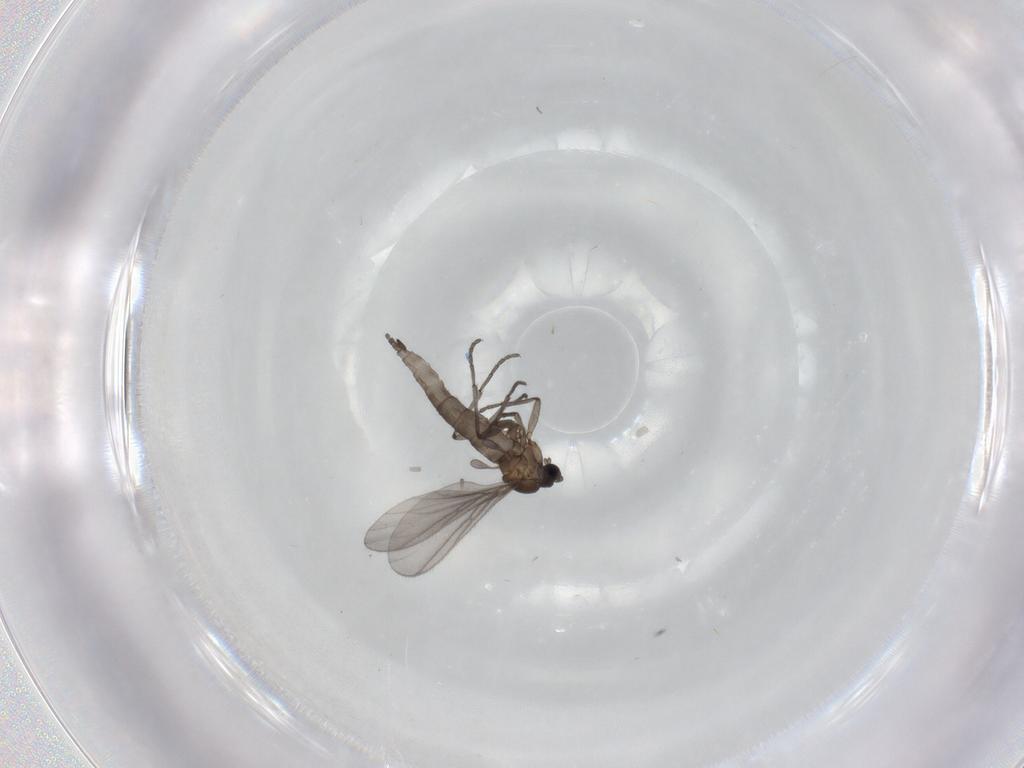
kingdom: Animalia
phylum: Arthropoda
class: Insecta
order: Diptera
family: Sciaridae
